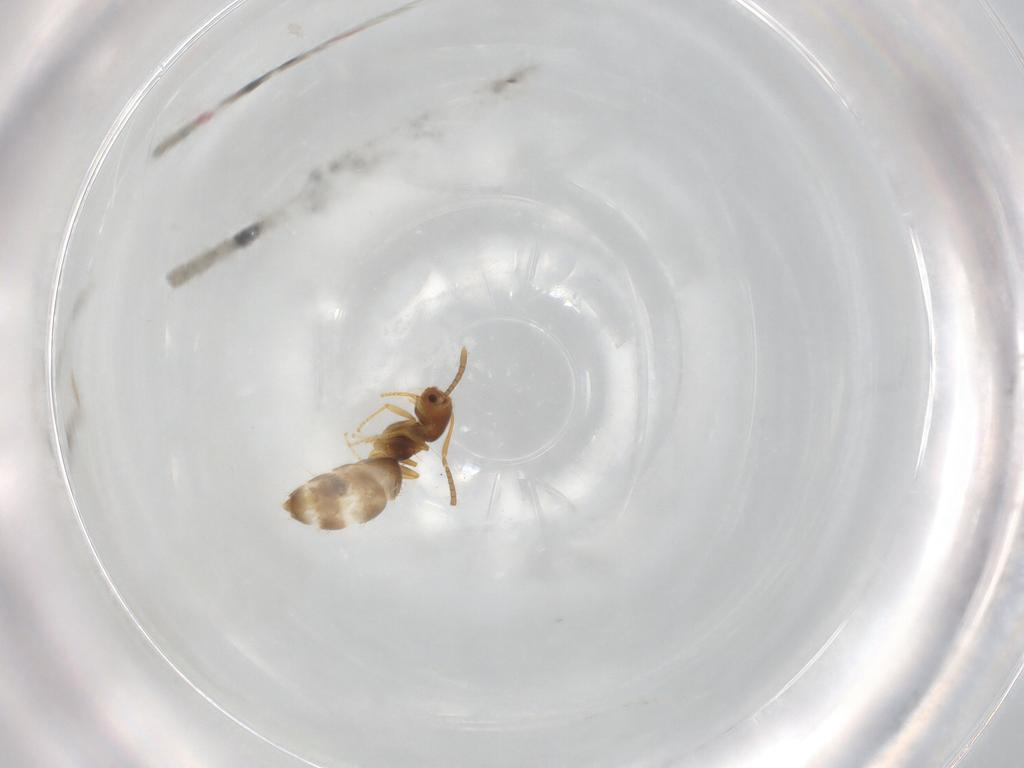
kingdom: Animalia
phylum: Arthropoda
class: Insecta
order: Hymenoptera
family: Formicidae
